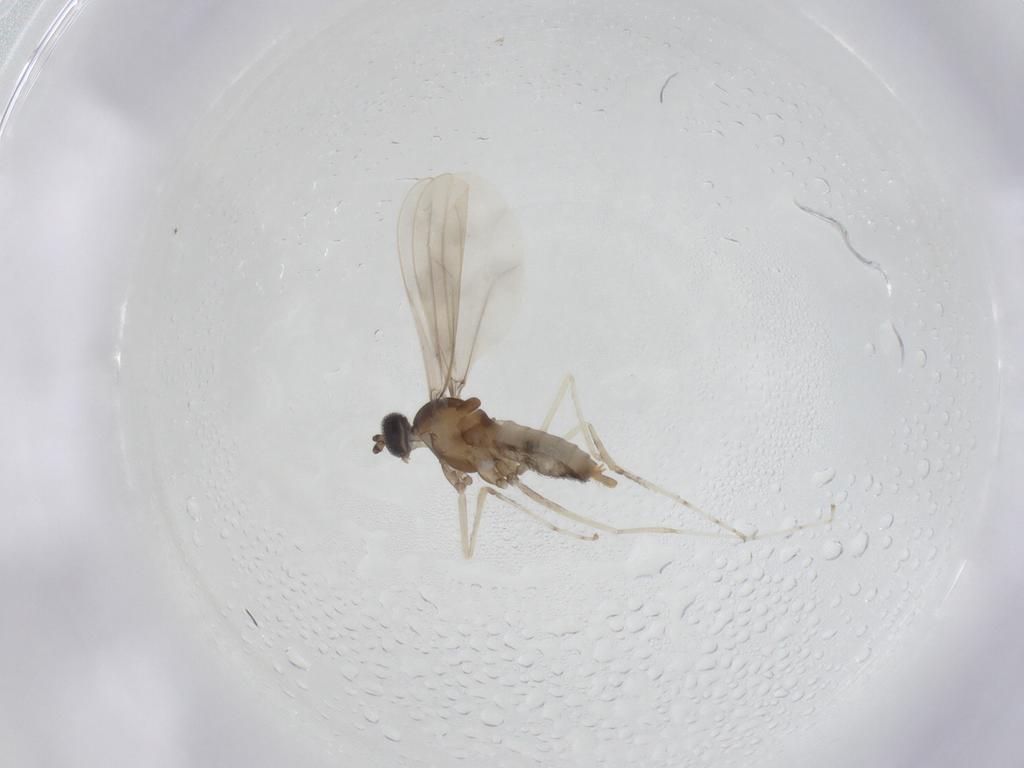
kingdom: Animalia
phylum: Arthropoda
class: Insecta
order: Diptera
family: Cecidomyiidae
